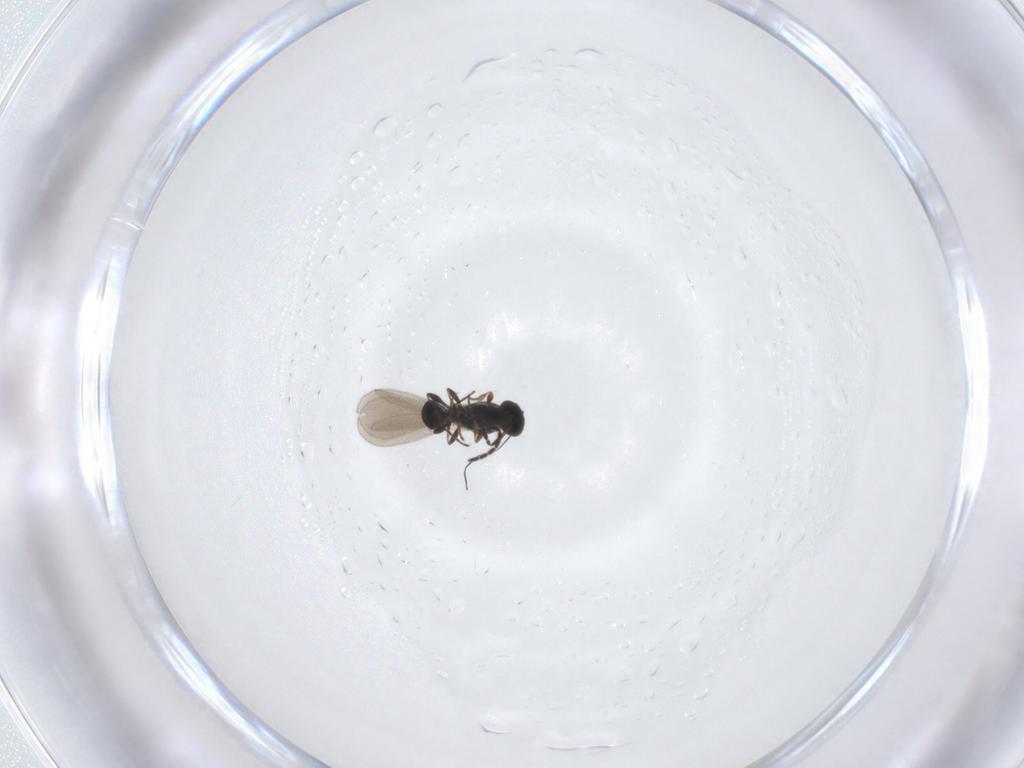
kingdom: Animalia
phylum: Arthropoda
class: Insecta
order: Hymenoptera
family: Platygastridae
